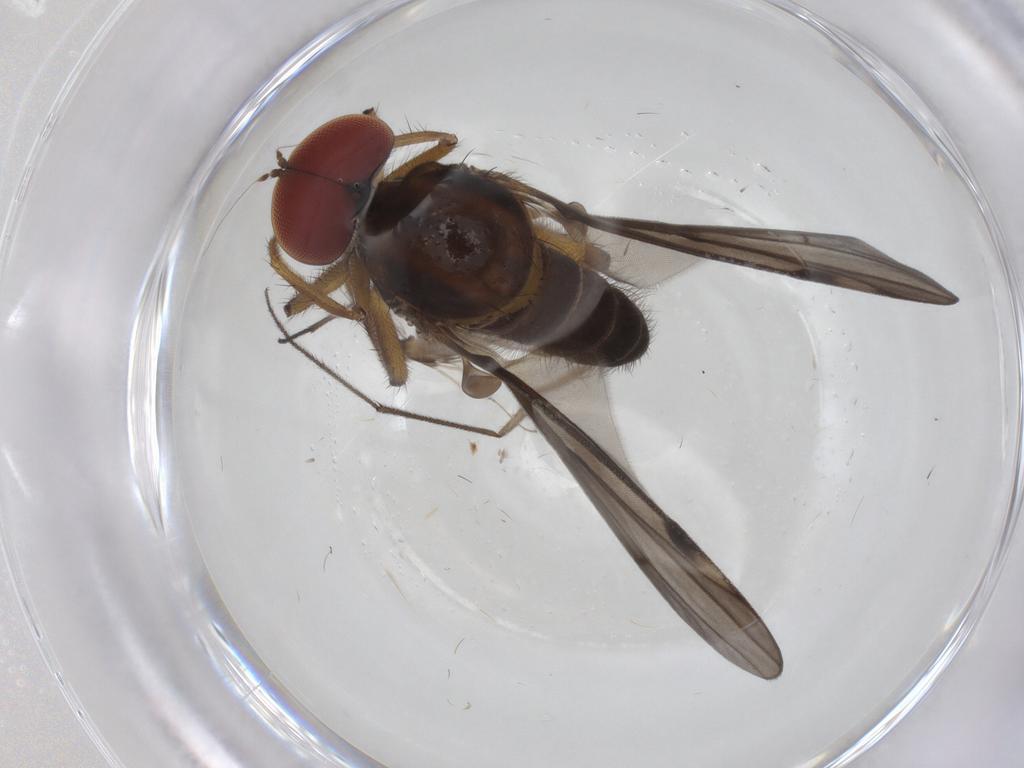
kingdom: Animalia
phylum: Arthropoda
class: Insecta
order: Diptera
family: Hybotidae
